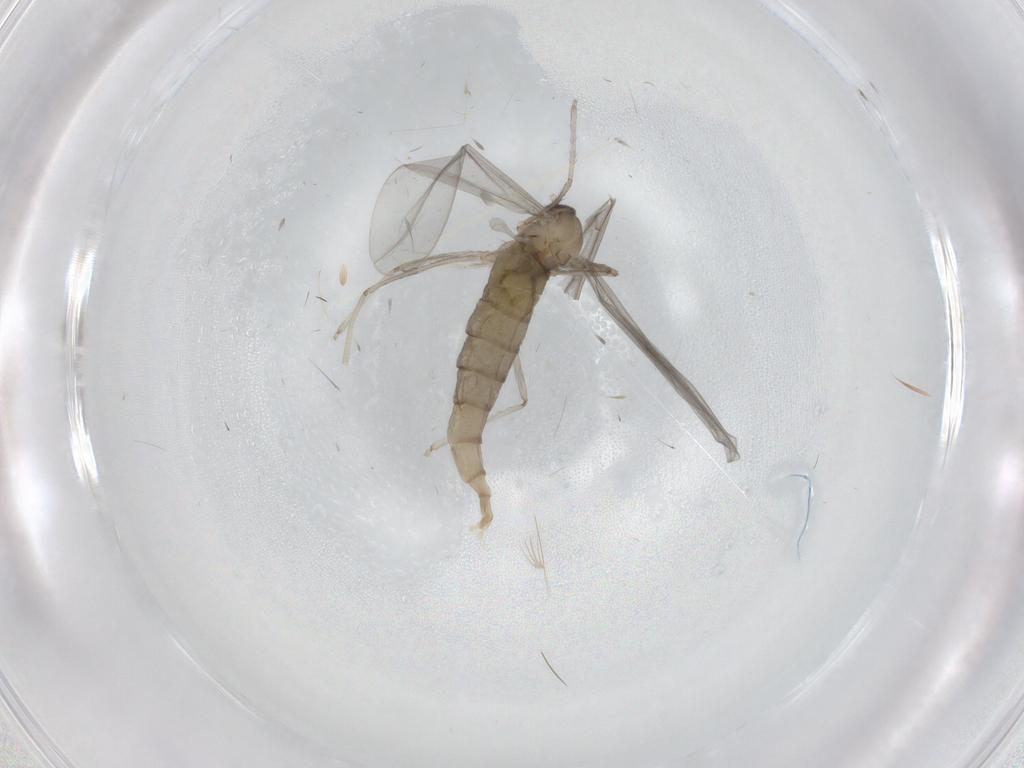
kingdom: Animalia
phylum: Arthropoda
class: Insecta
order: Diptera
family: Cecidomyiidae
